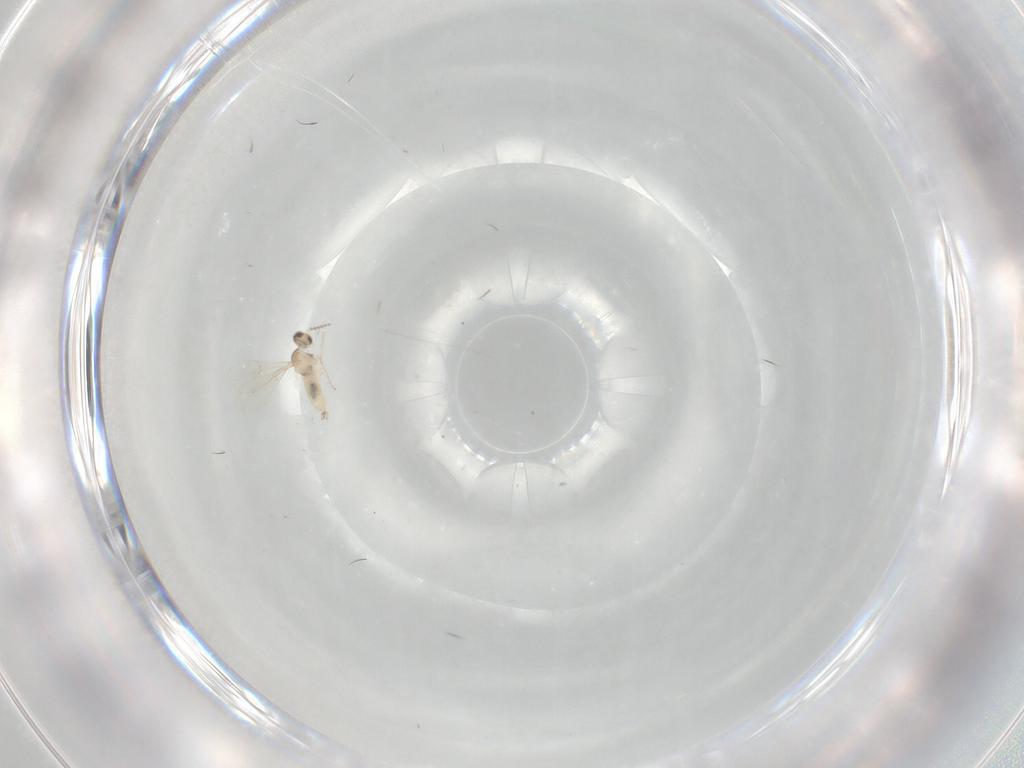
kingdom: Animalia
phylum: Arthropoda
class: Insecta
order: Diptera
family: Cecidomyiidae
